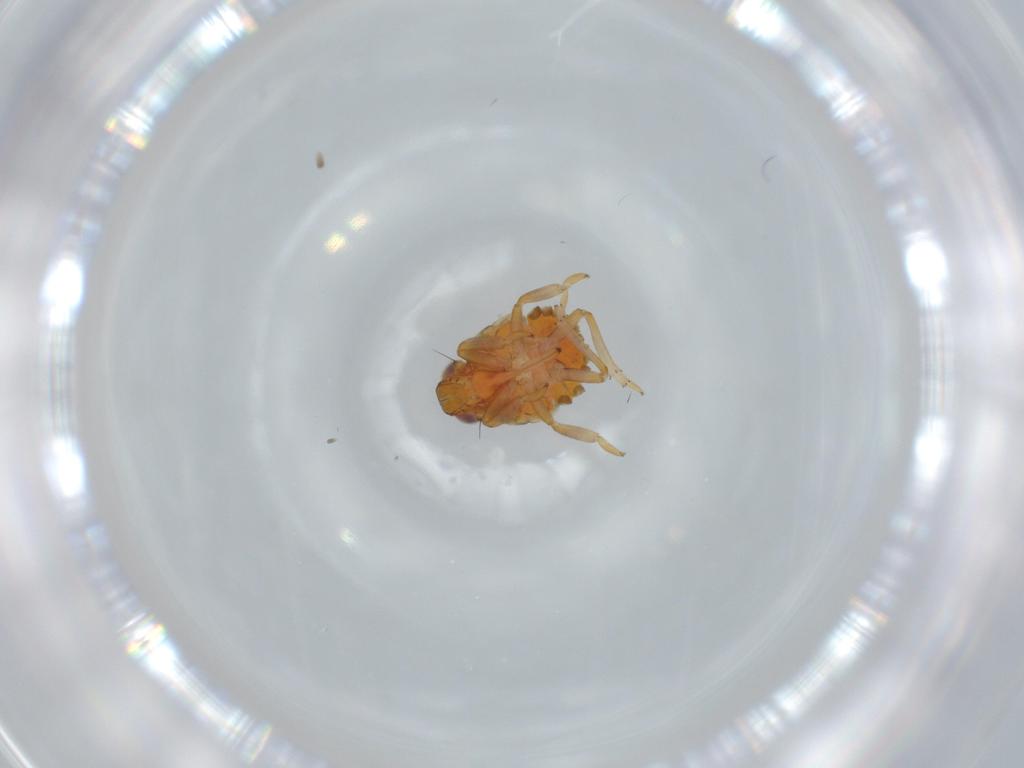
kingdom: Animalia
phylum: Arthropoda
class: Insecta
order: Hemiptera
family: Issidae
